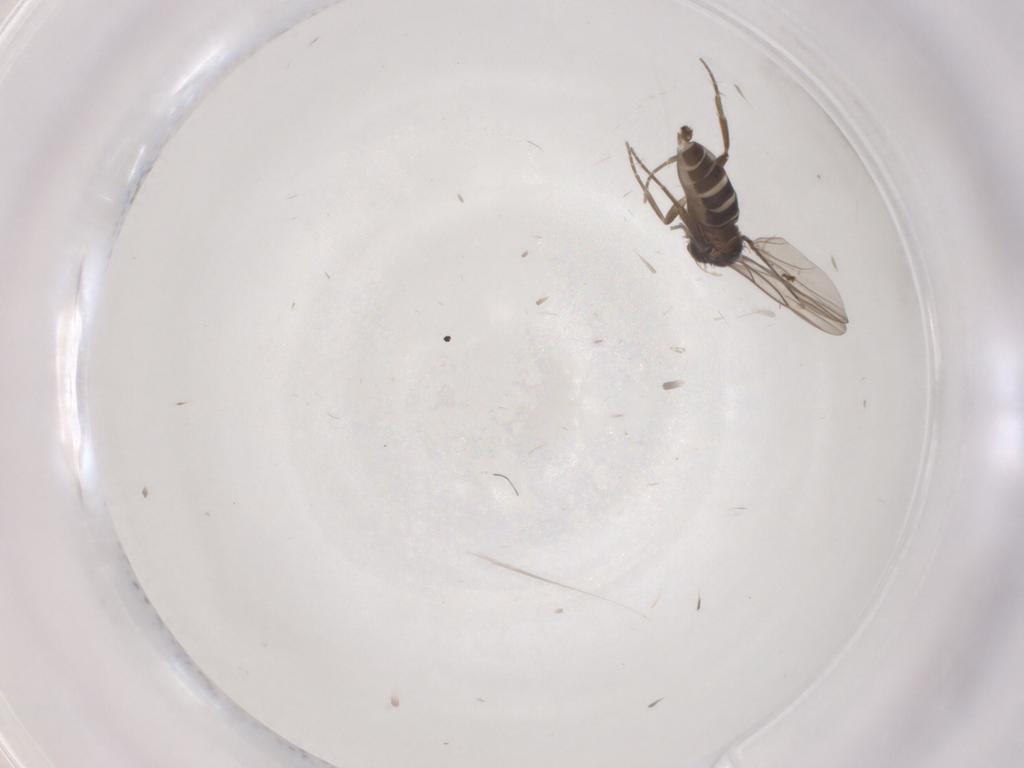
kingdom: Animalia
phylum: Arthropoda
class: Insecta
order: Diptera
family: Phoridae
